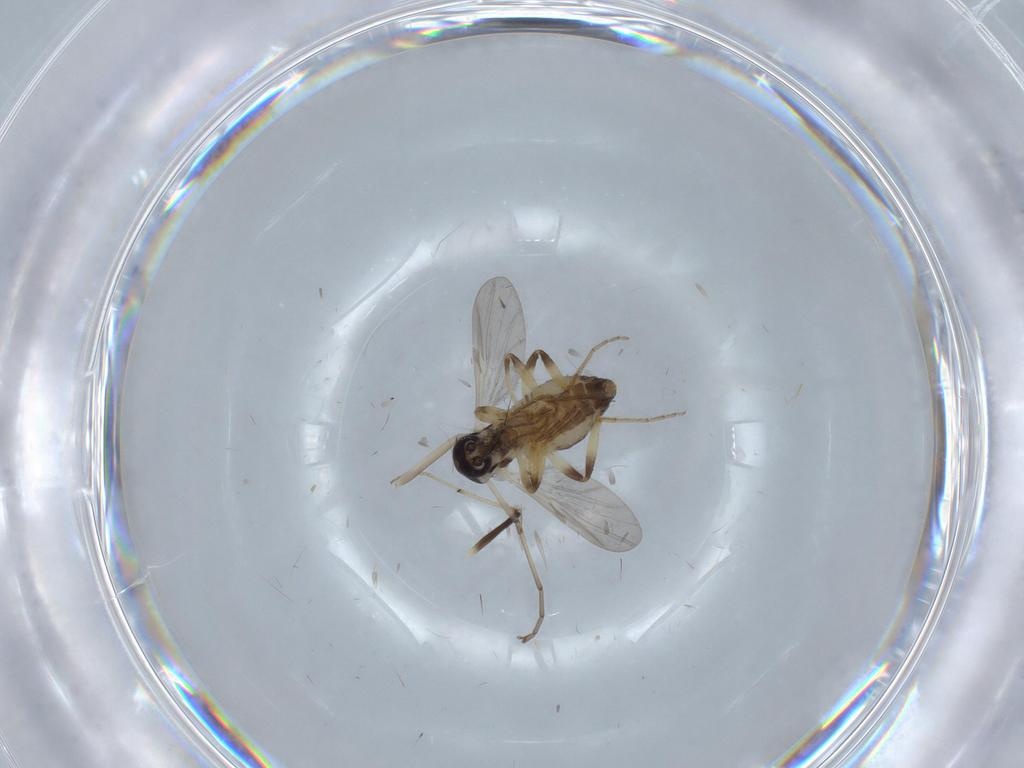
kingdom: Animalia
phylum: Arthropoda
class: Insecta
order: Diptera
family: Ceratopogonidae
